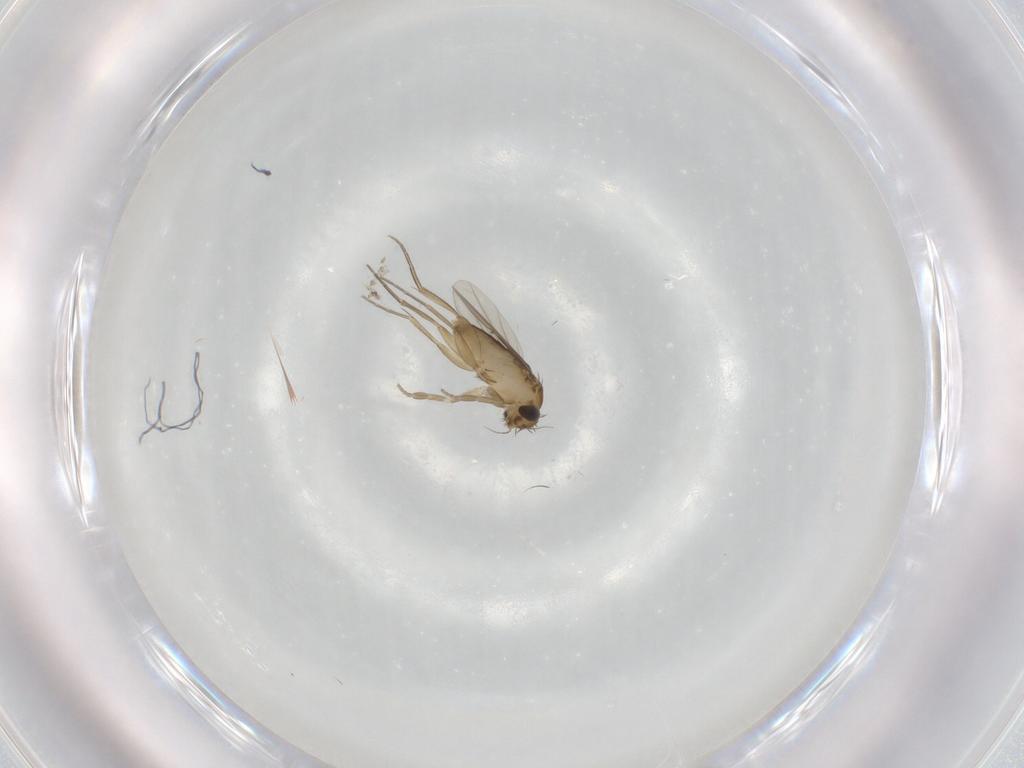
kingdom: Animalia
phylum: Arthropoda
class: Insecta
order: Diptera
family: Phoridae
